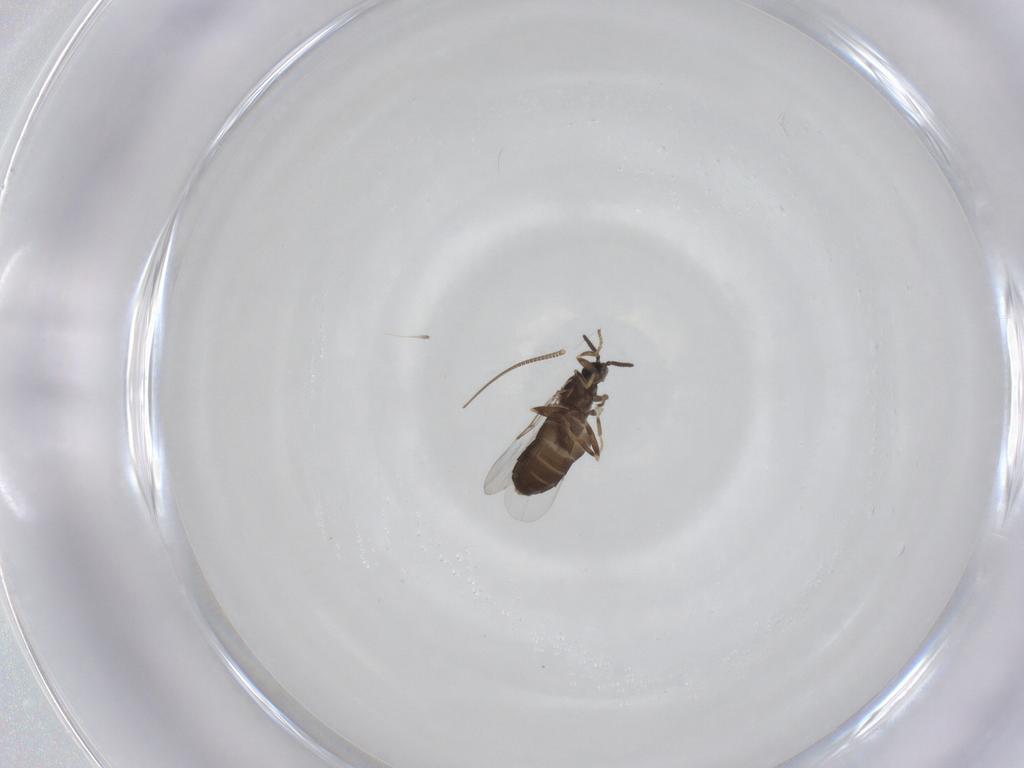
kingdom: Animalia
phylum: Arthropoda
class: Insecta
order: Diptera
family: Scatopsidae
